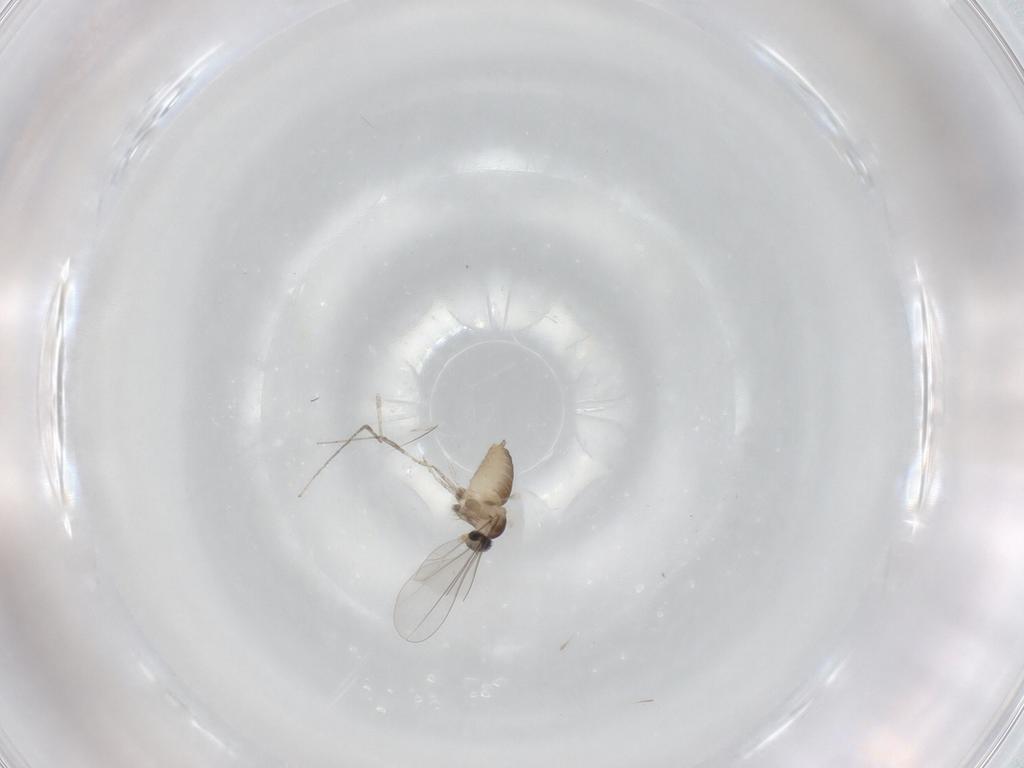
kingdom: Animalia
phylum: Arthropoda
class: Insecta
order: Diptera
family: Cecidomyiidae
